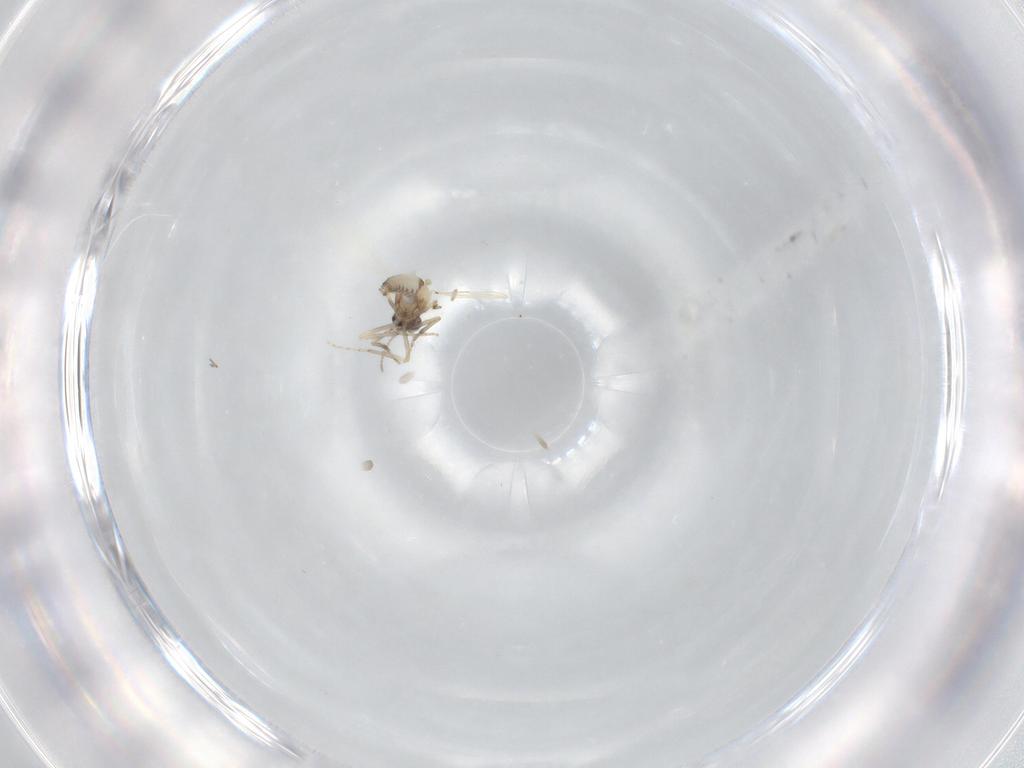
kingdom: Animalia
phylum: Arthropoda
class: Insecta
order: Diptera
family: Ceratopogonidae
